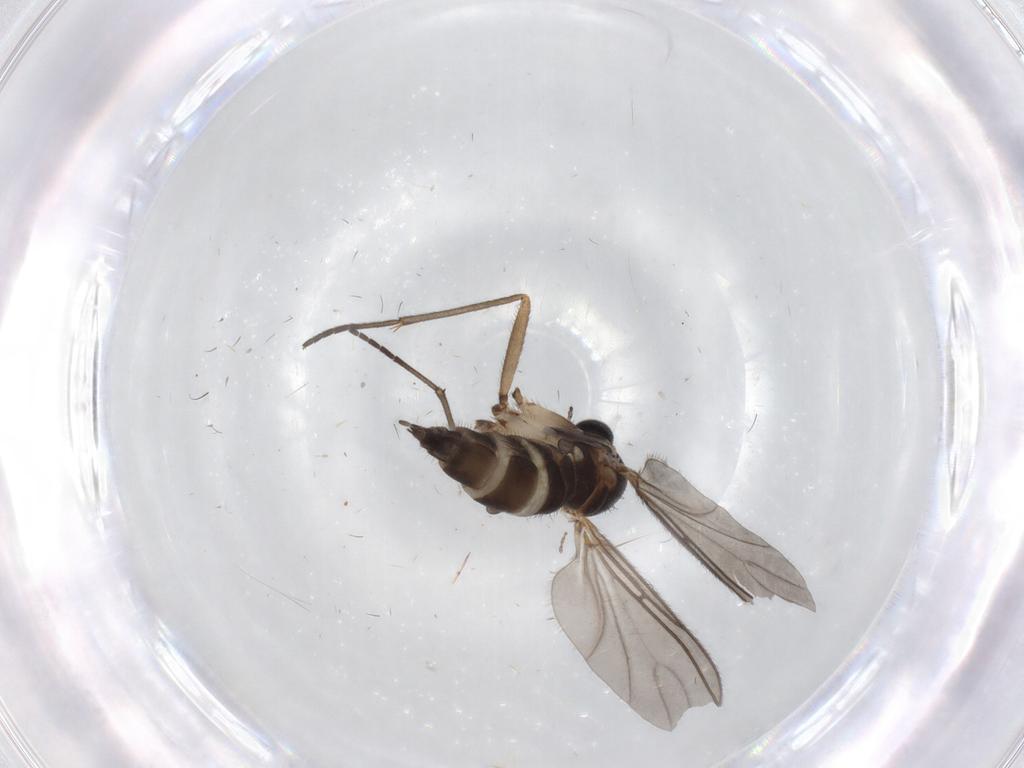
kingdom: Animalia
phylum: Arthropoda
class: Insecta
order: Diptera
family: Sciaridae
